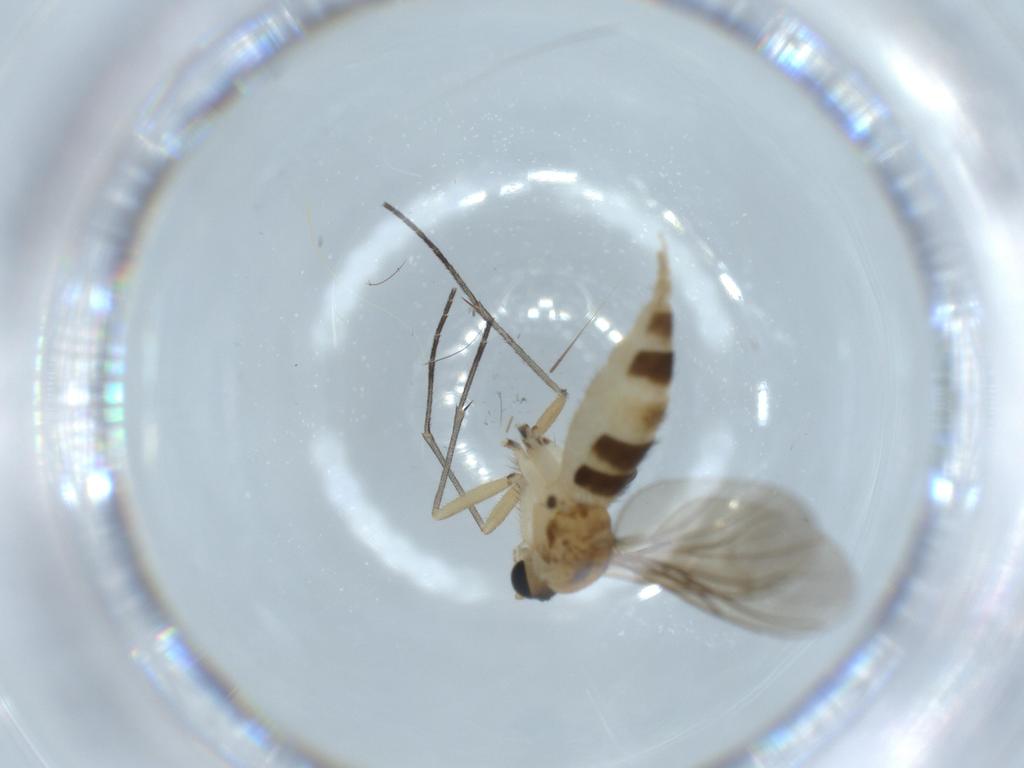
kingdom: Animalia
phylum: Arthropoda
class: Insecta
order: Diptera
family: Sciaridae
